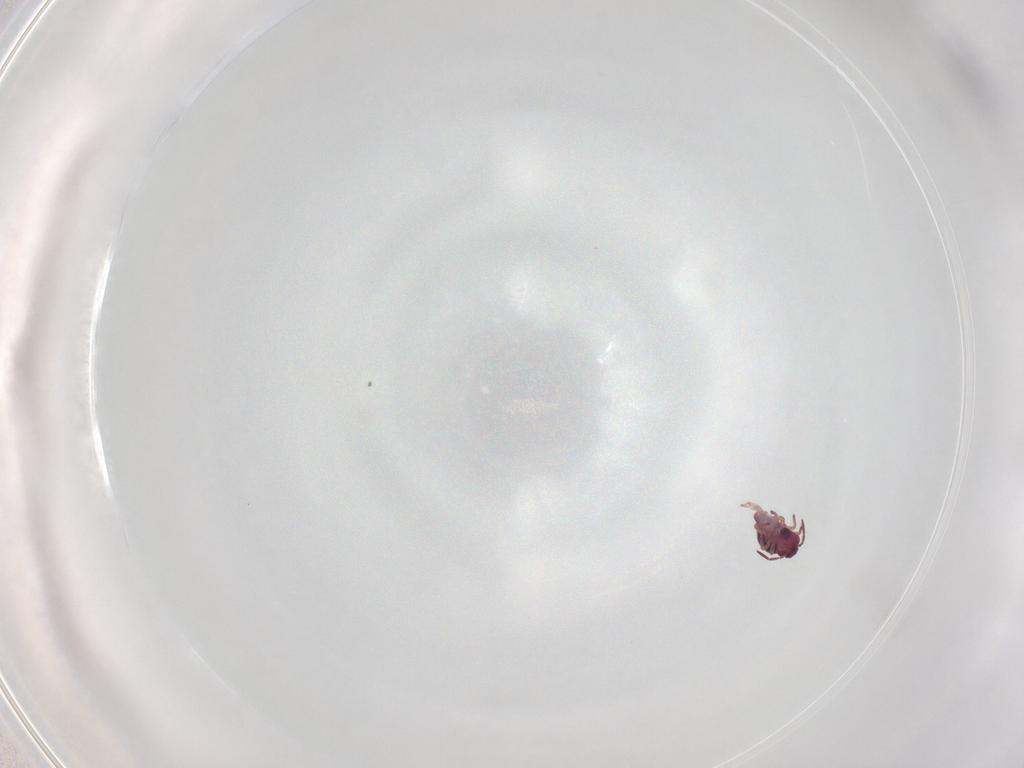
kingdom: Animalia
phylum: Arthropoda
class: Collembola
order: Symphypleona
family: Sminthurididae
